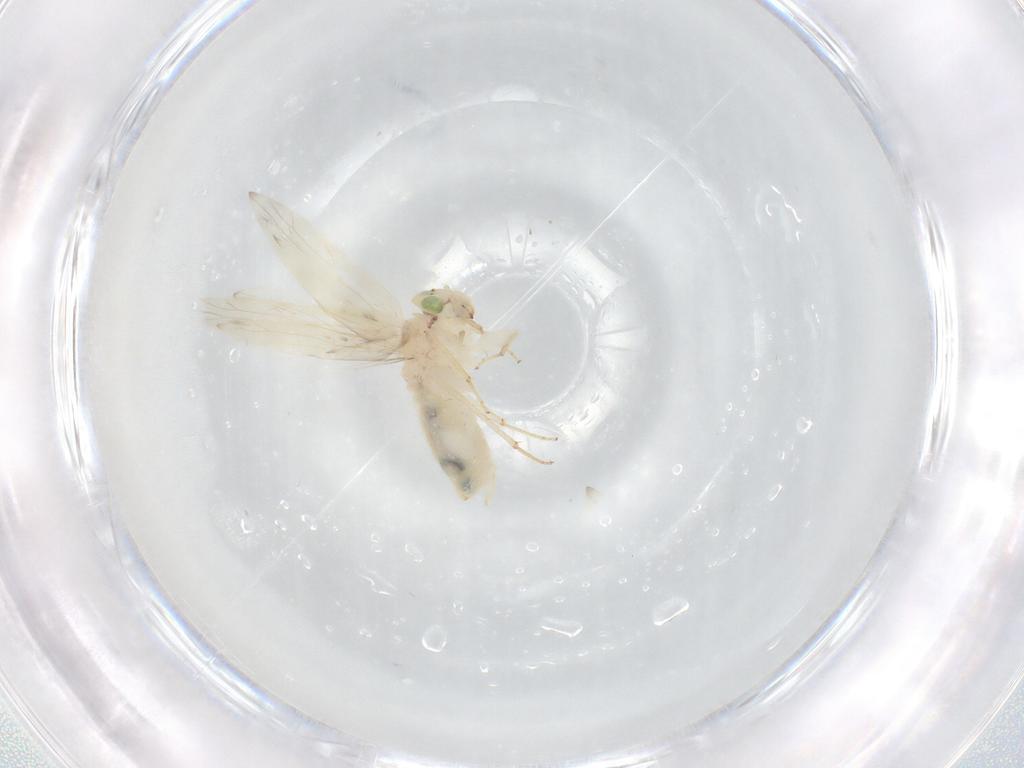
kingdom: Animalia
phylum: Arthropoda
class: Insecta
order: Psocodea
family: Lepidopsocidae
